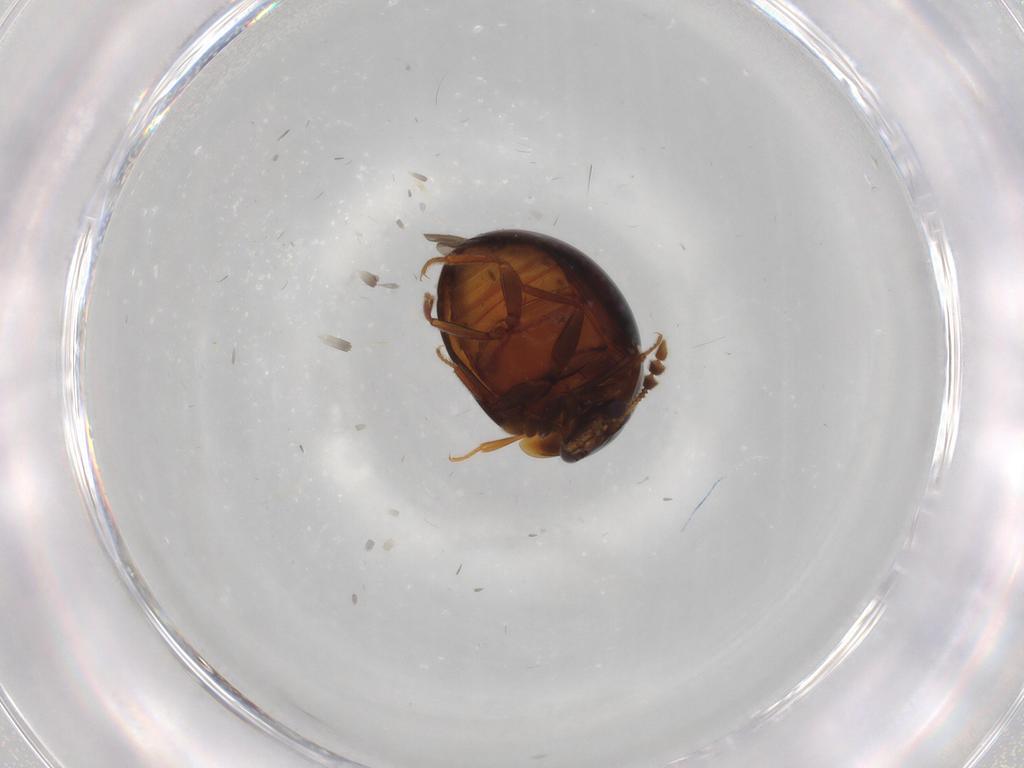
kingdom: Animalia
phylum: Arthropoda
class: Insecta
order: Coleoptera
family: Leiodidae
